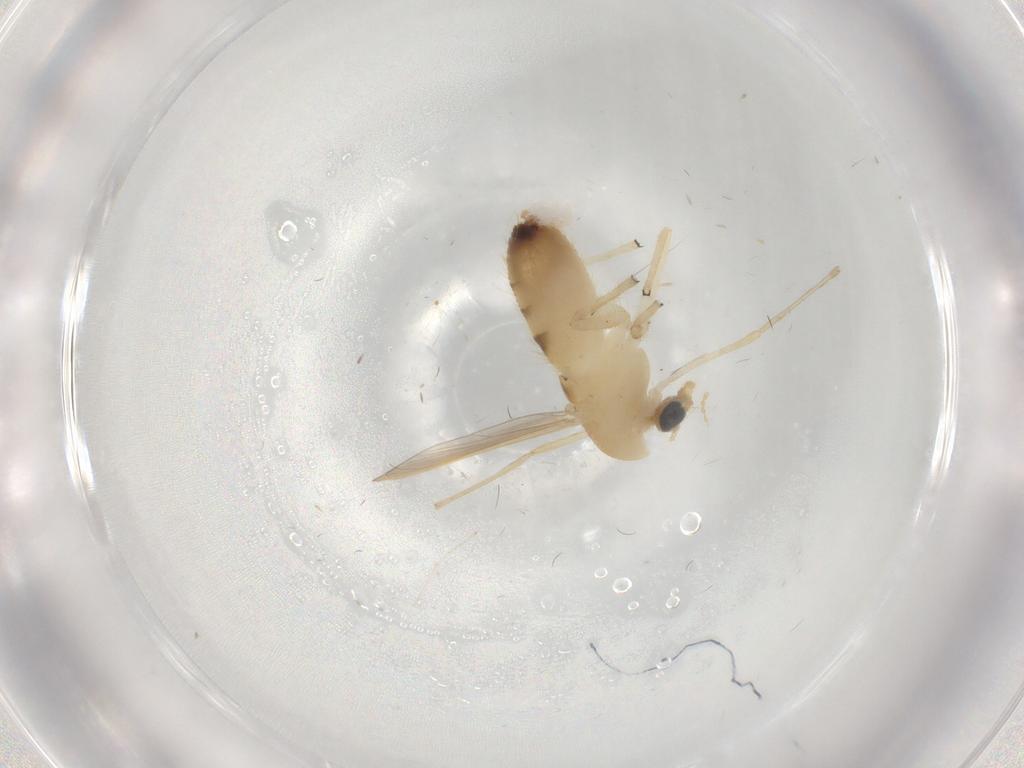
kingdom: Animalia
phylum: Arthropoda
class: Insecta
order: Diptera
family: Chironomidae
